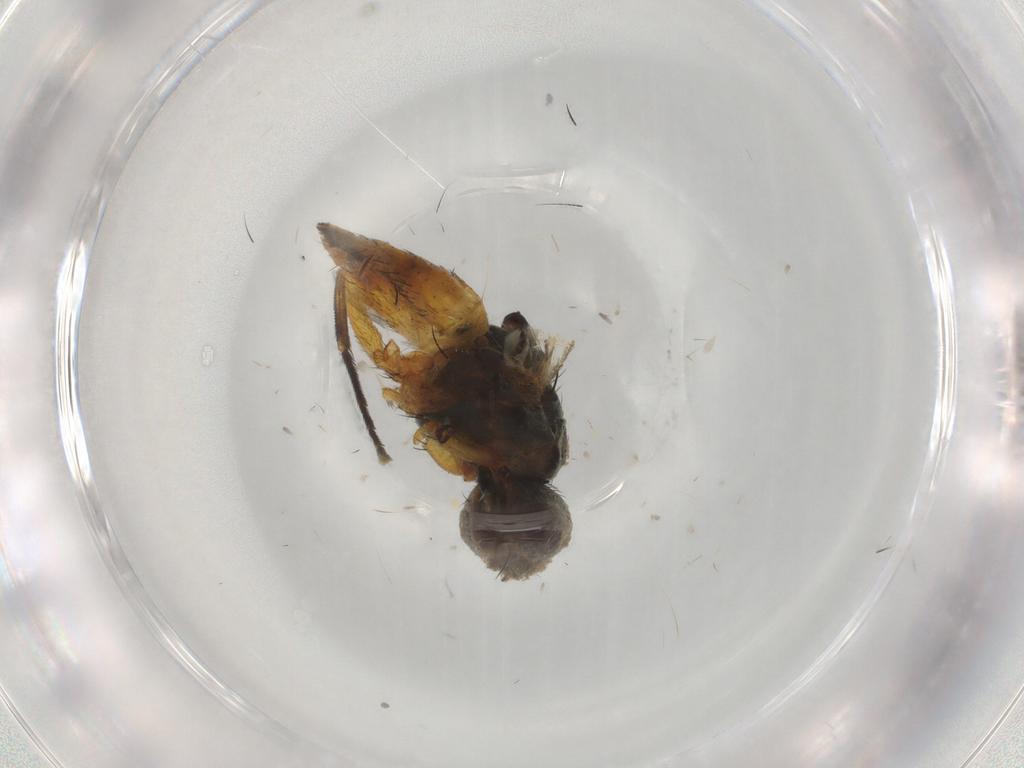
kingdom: Animalia
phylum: Arthropoda
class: Insecta
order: Diptera
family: Muscidae
